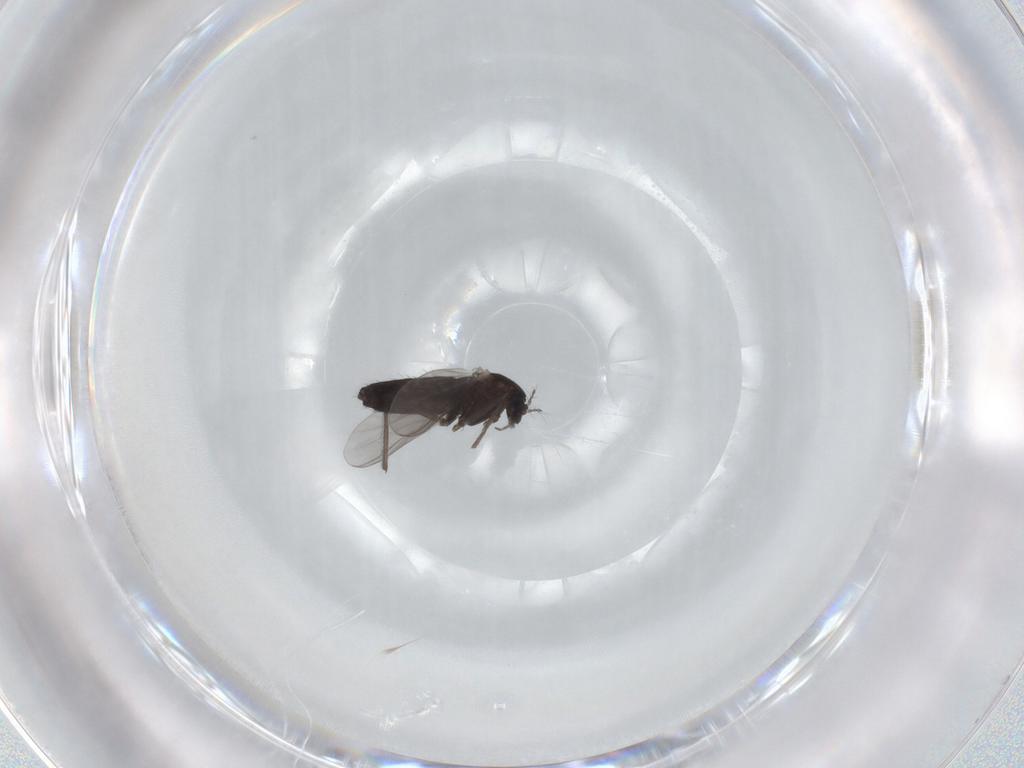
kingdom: Animalia
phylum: Arthropoda
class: Insecta
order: Diptera
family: Chironomidae
